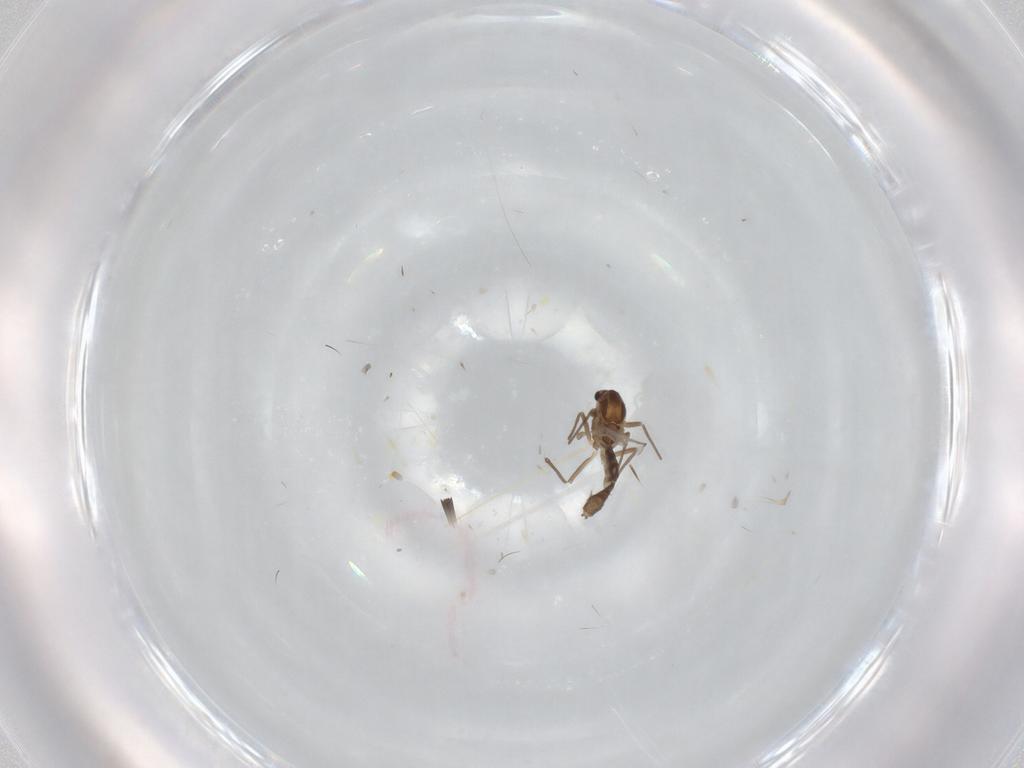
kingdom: Animalia
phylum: Arthropoda
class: Insecta
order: Diptera
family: Chironomidae
